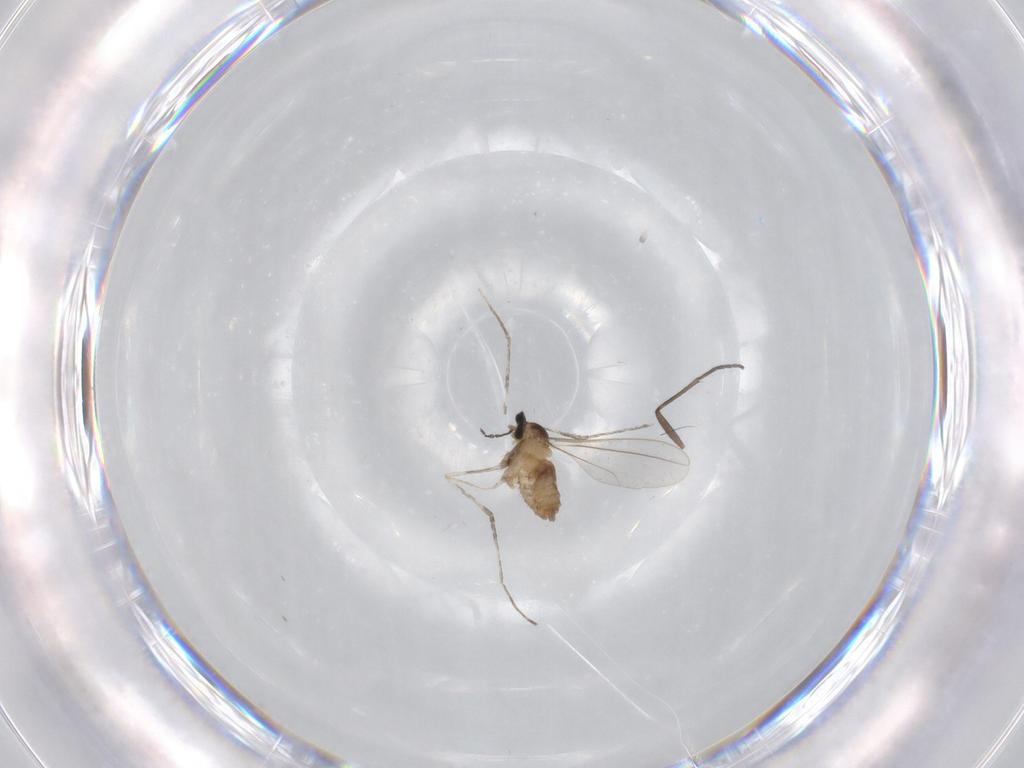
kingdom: Animalia
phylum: Arthropoda
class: Insecta
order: Diptera
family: Cecidomyiidae
